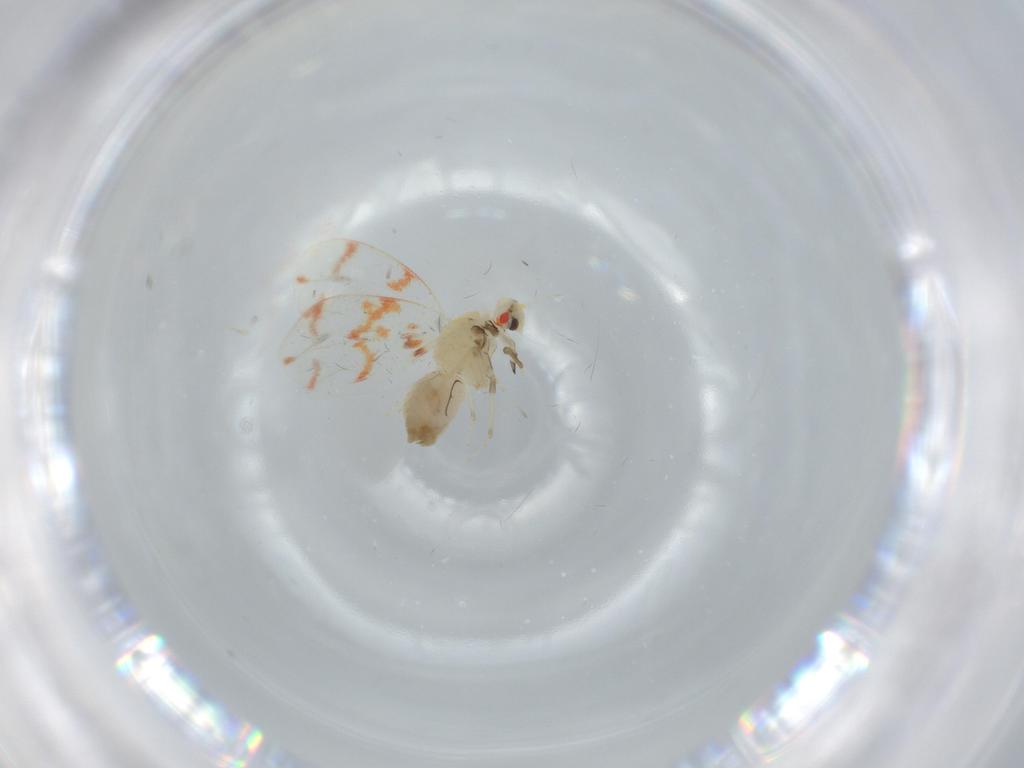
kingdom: Animalia
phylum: Arthropoda
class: Insecta
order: Hemiptera
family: Aleyrodidae
